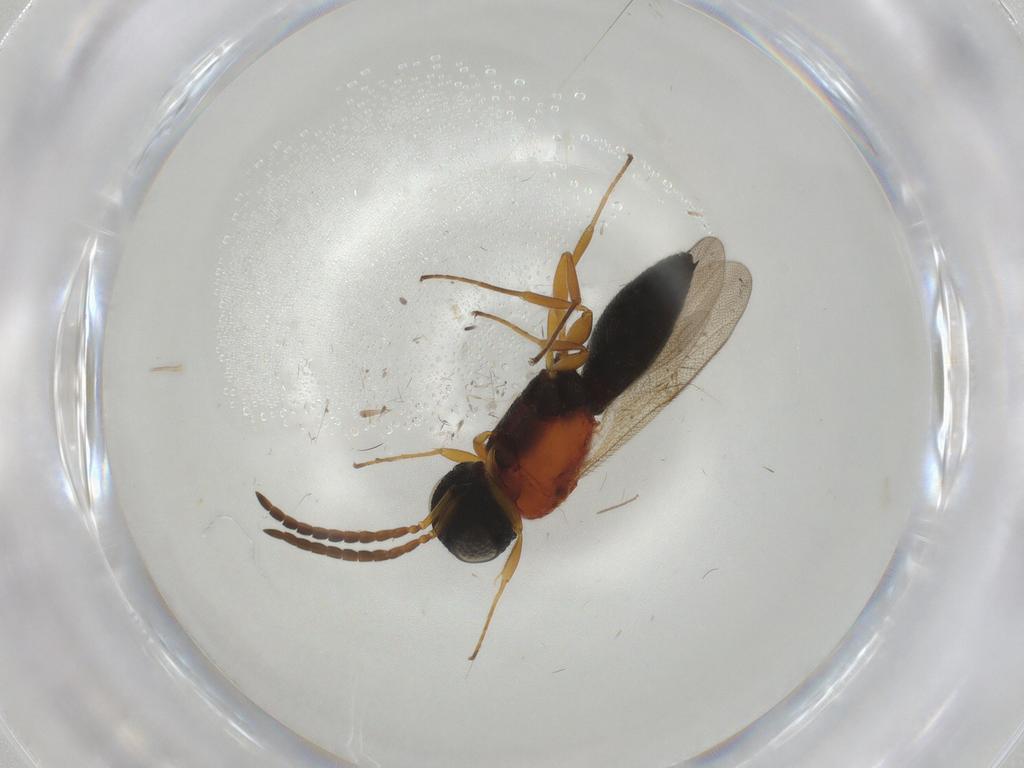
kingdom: Animalia
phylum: Arthropoda
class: Insecta
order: Hymenoptera
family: Scelionidae
